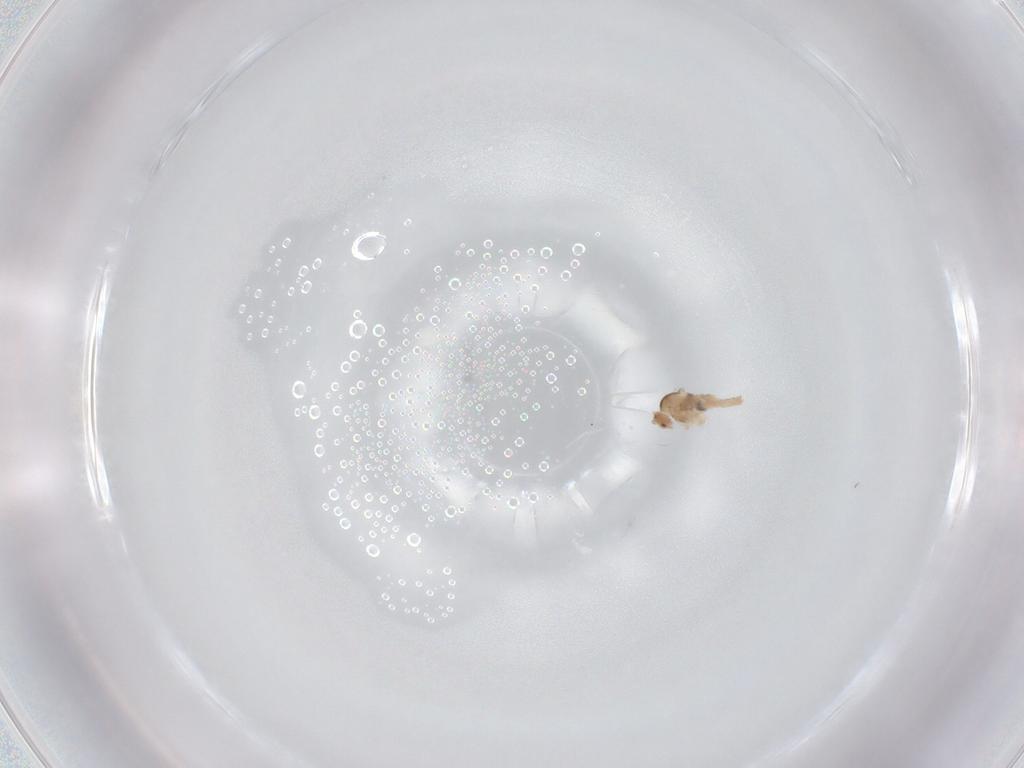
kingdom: Animalia
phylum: Arthropoda
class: Insecta
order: Diptera
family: Cecidomyiidae
